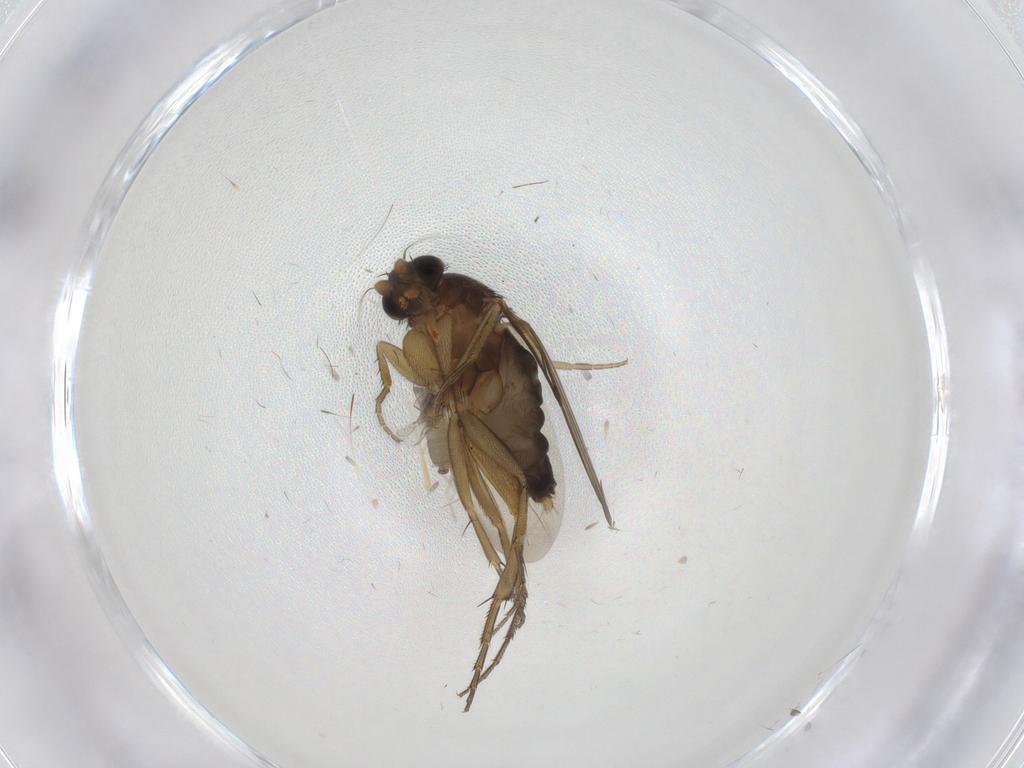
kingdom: Animalia
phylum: Arthropoda
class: Insecta
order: Diptera
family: Phoridae
